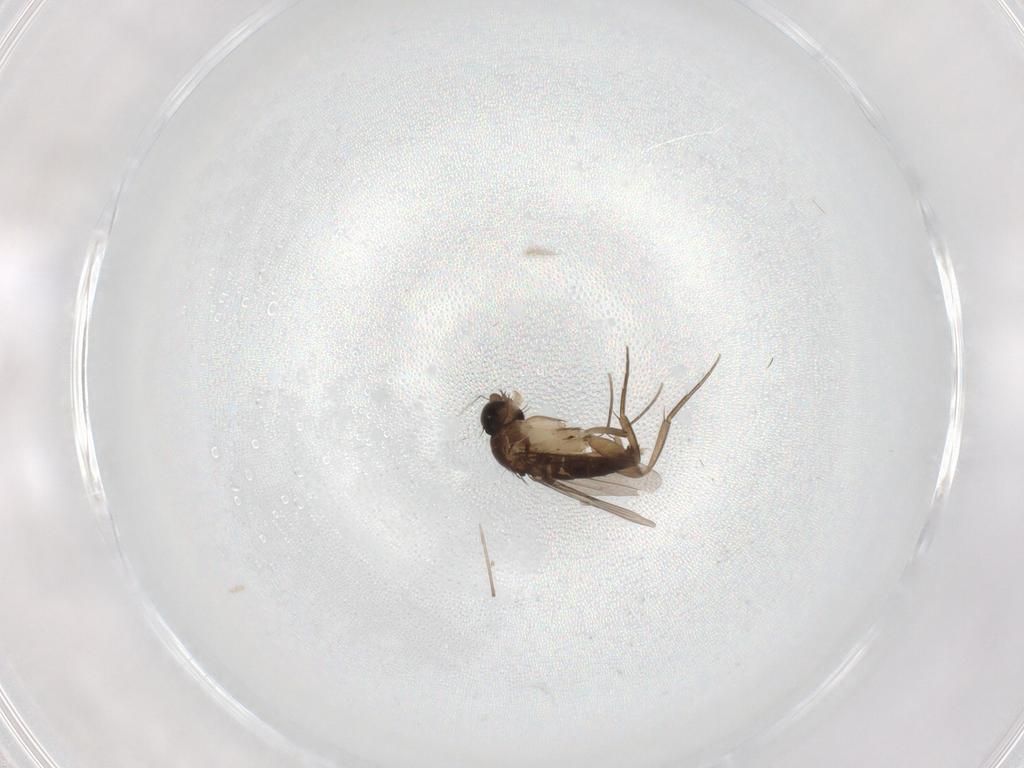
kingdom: Animalia
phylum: Arthropoda
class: Insecta
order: Diptera
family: Phoridae
